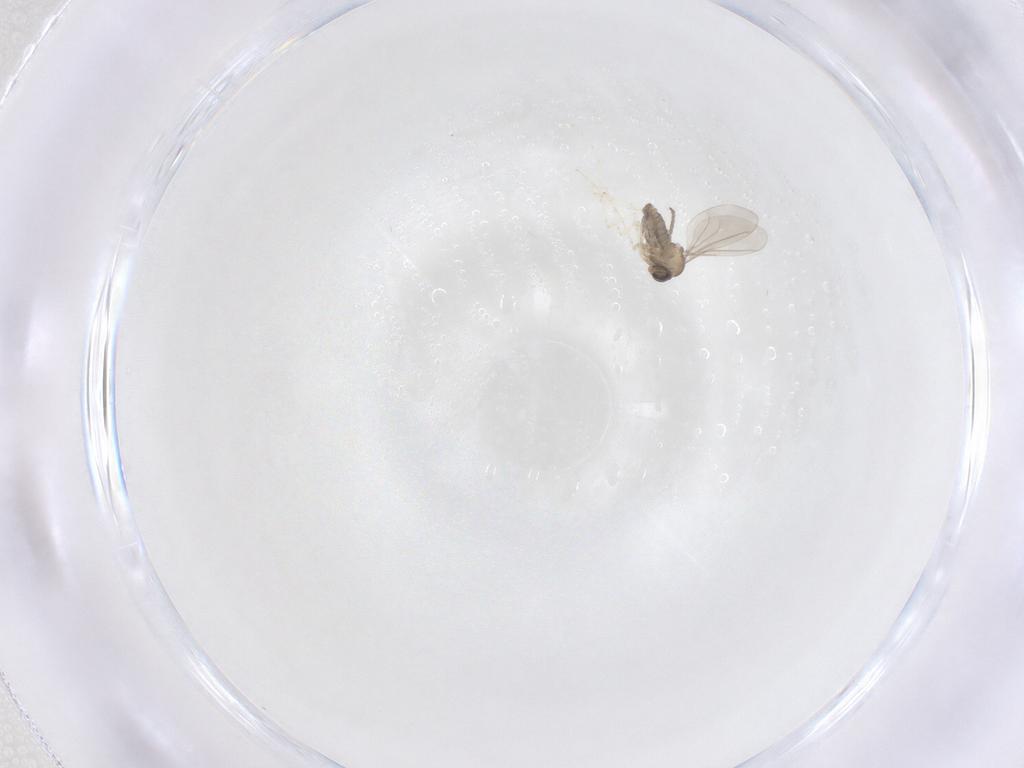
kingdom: Animalia
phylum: Arthropoda
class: Insecta
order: Diptera
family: Cecidomyiidae
